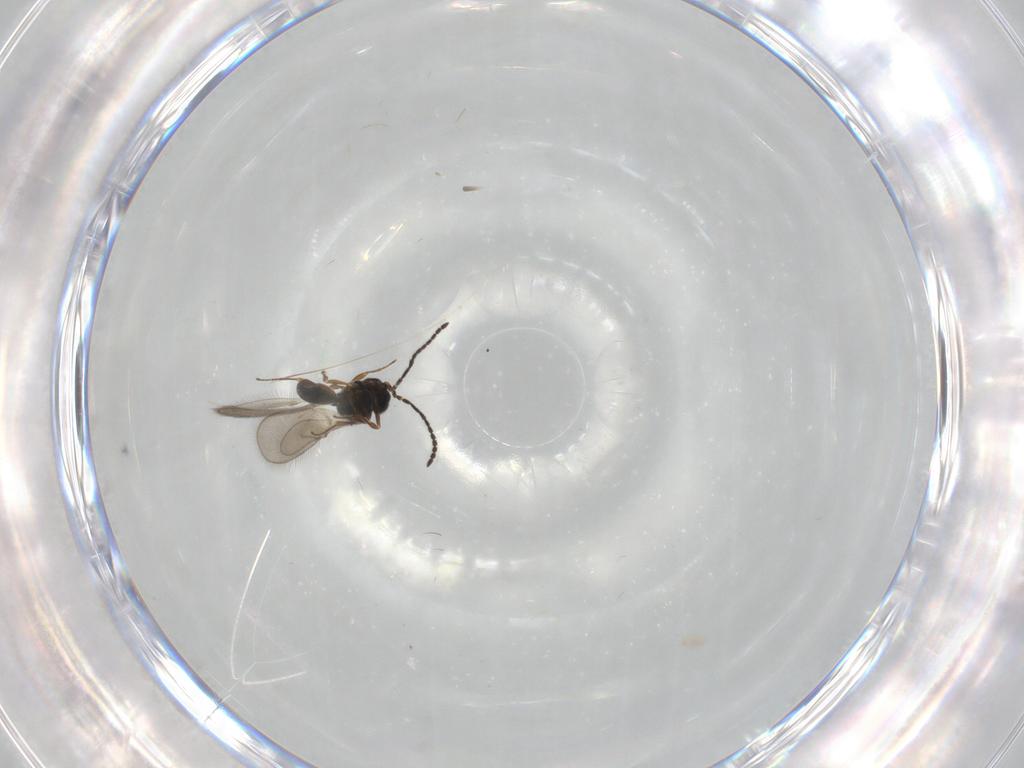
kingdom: Animalia
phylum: Arthropoda
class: Insecta
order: Hymenoptera
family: Scelionidae
